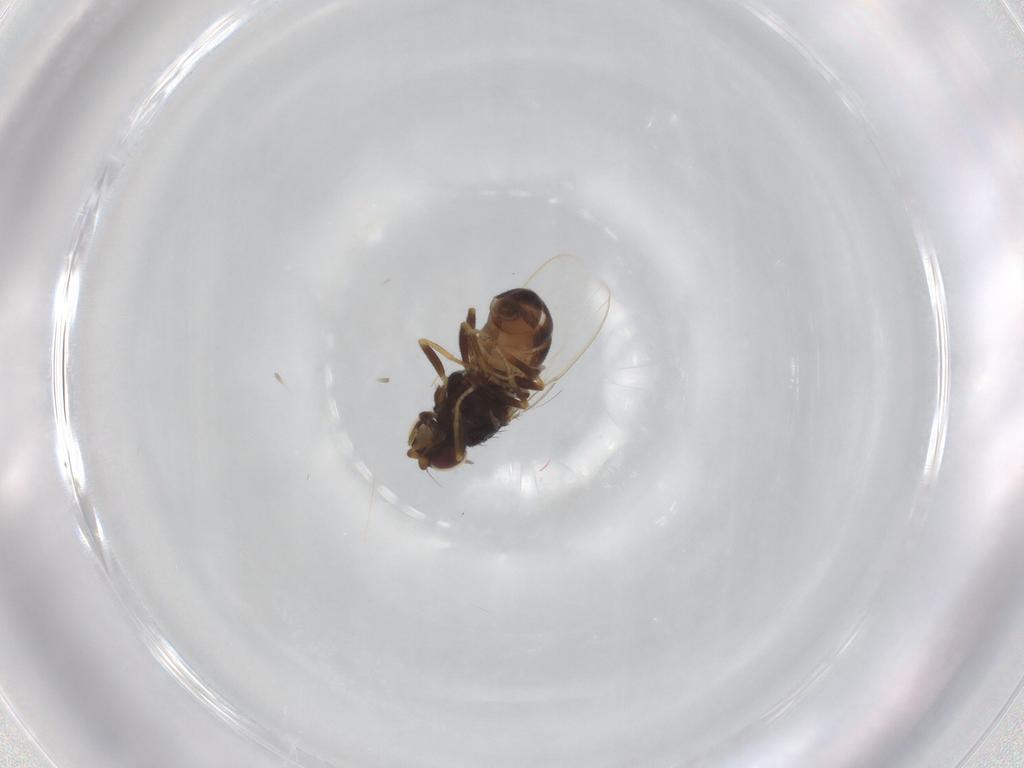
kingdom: Animalia
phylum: Arthropoda
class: Insecta
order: Diptera
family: Chloropidae
